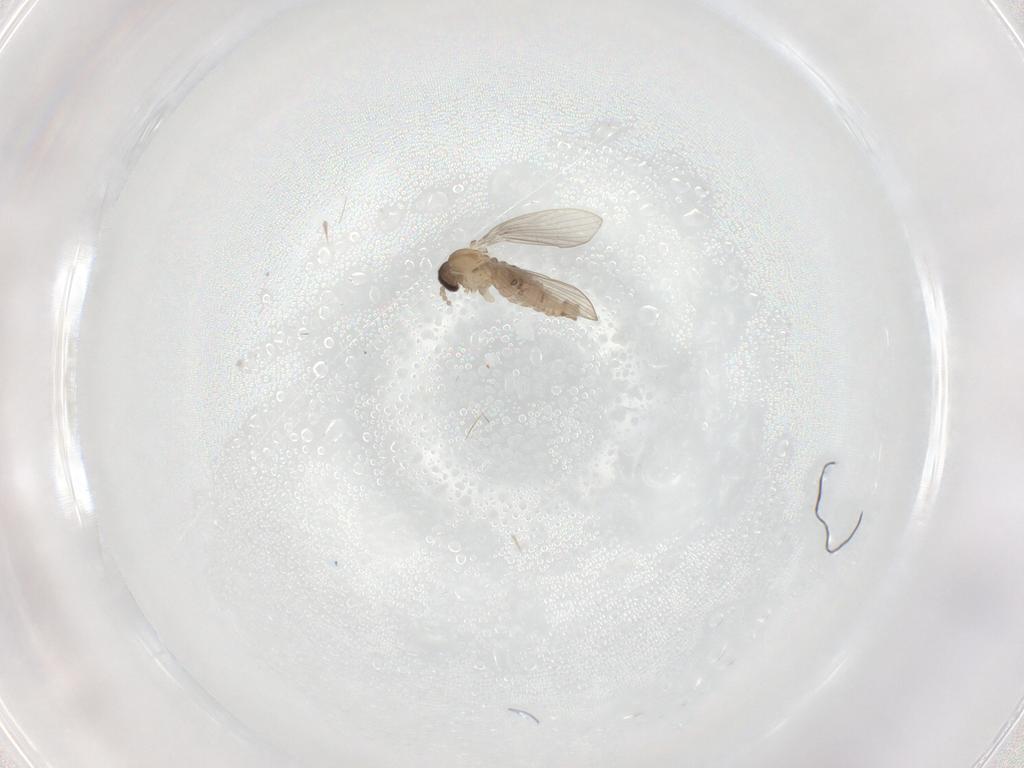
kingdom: Animalia
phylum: Arthropoda
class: Insecta
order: Diptera
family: Psychodidae
